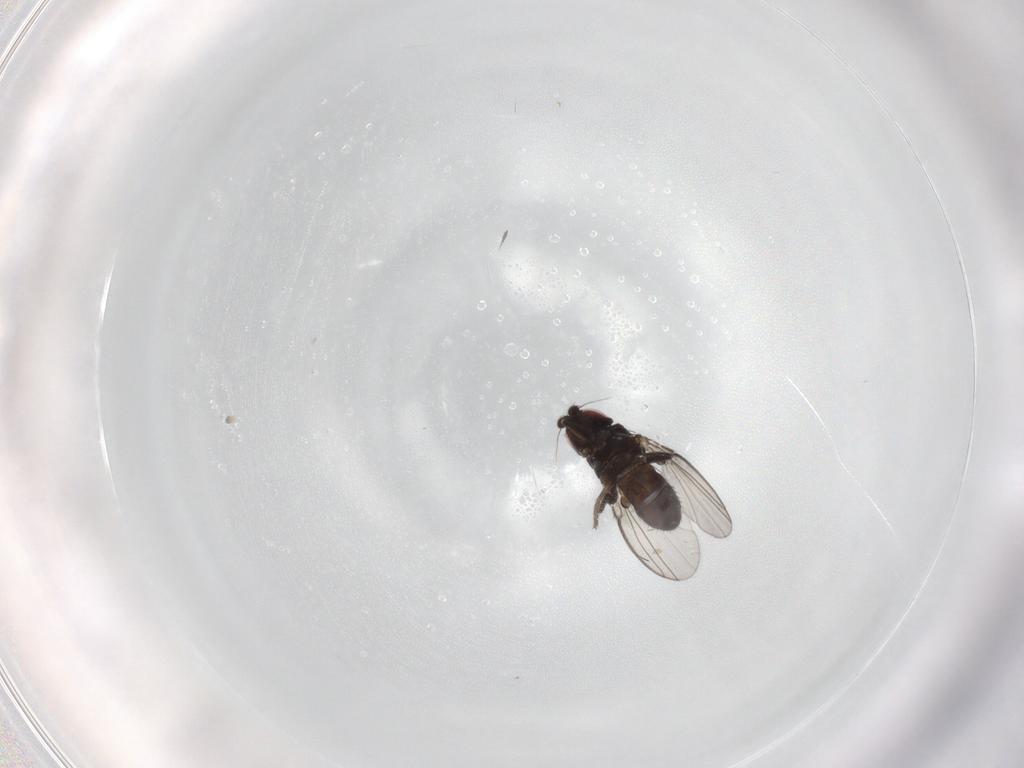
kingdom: Animalia
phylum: Arthropoda
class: Insecta
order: Diptera
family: Milichiidae
